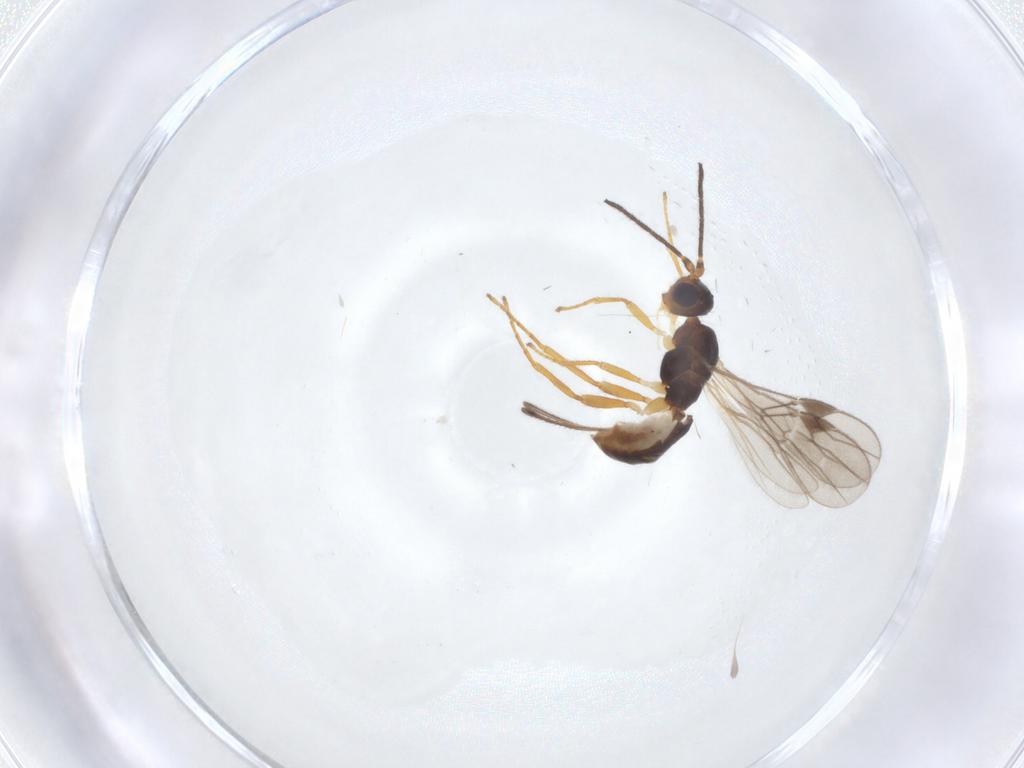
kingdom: Animalia
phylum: Arthropoda
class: Insecta
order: Hymenoptera
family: Braconidae
